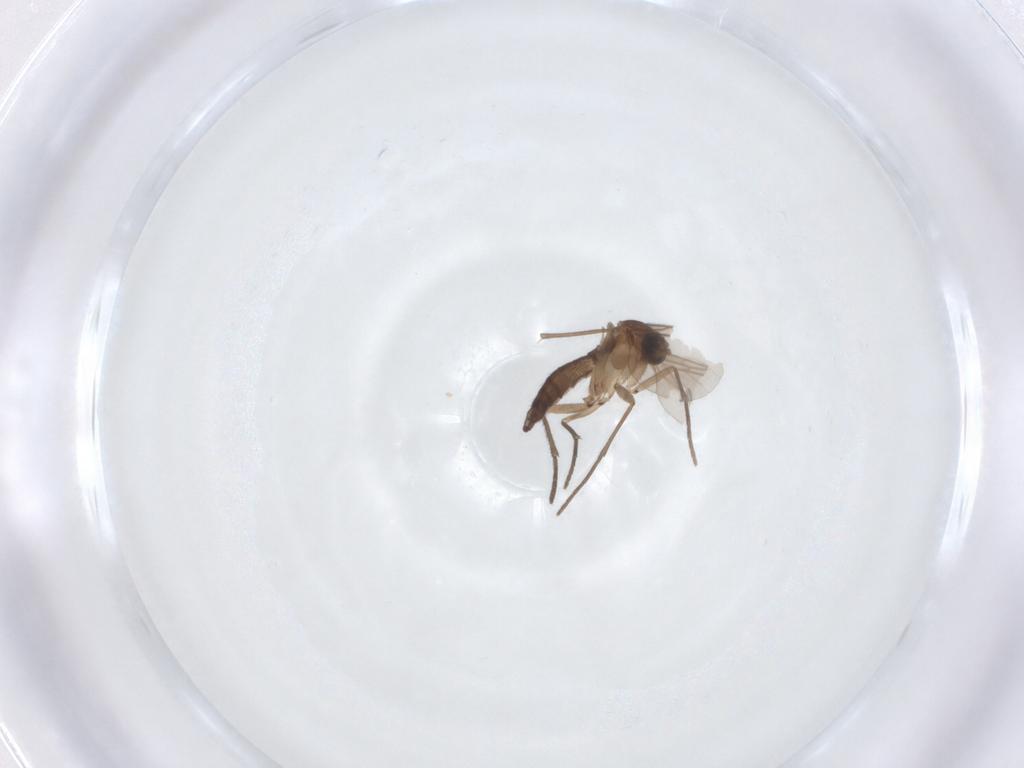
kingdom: Animalia
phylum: Arthropoda
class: Insecta
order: Diptera
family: Sciaridae
